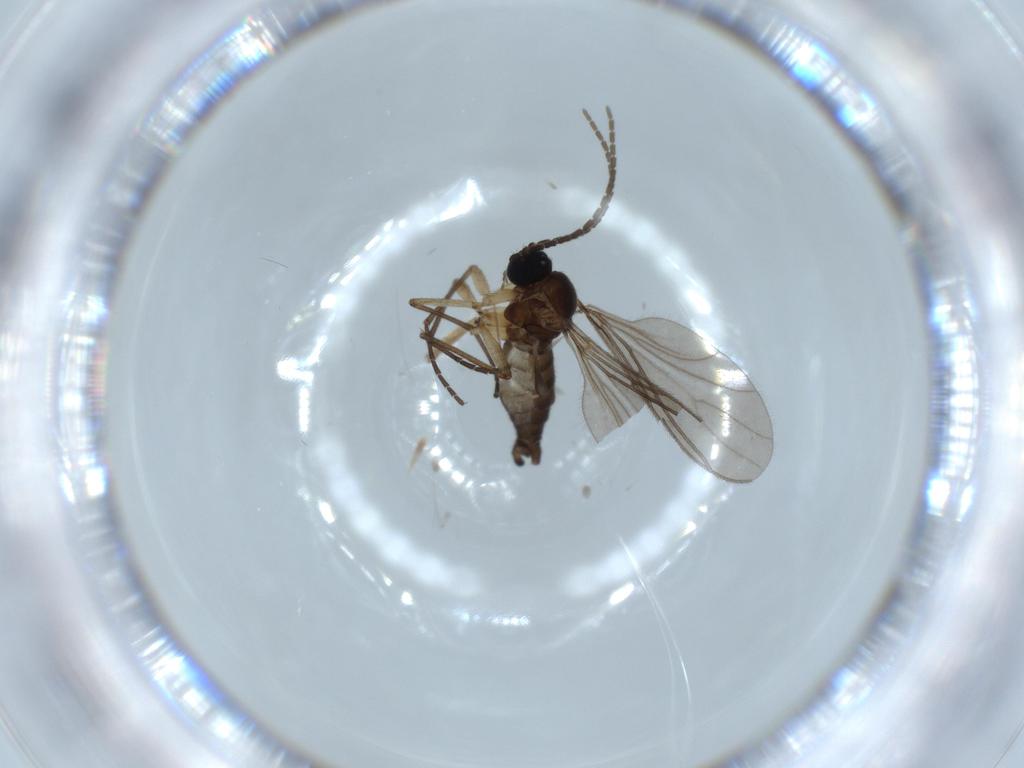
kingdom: Animalia
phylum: Arthropoda
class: Insecta
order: Diptera
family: Sciaridae
